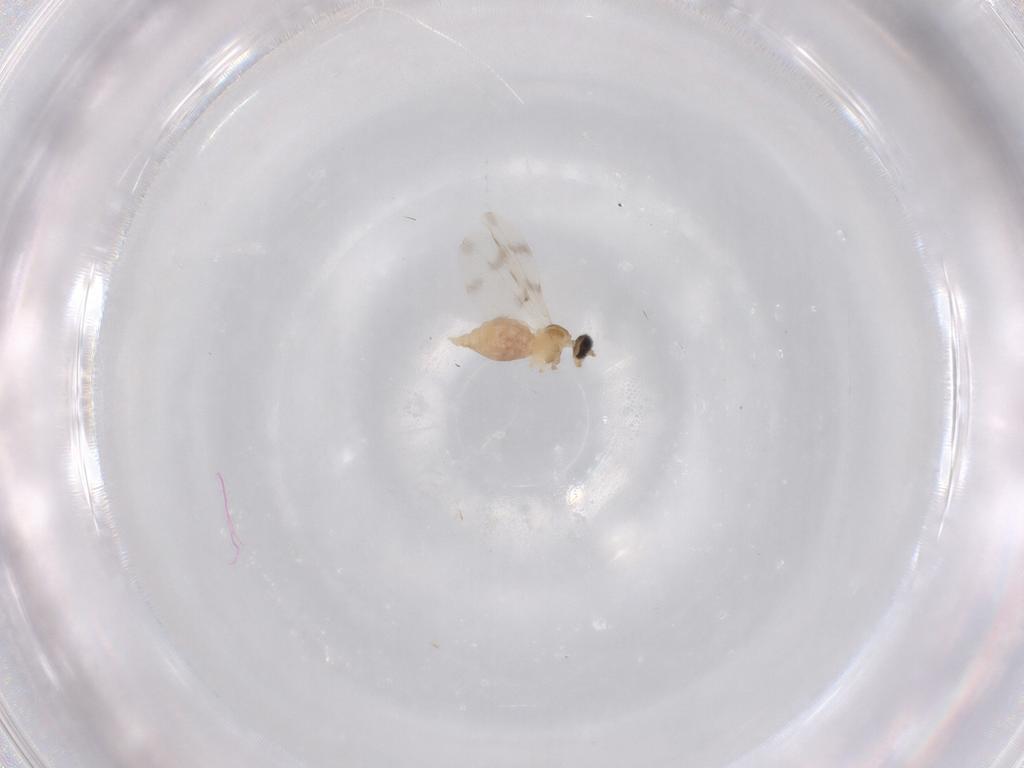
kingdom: Animalia
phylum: Arthropoda
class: Insecta
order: Diptera
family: Cecidomyiidae
